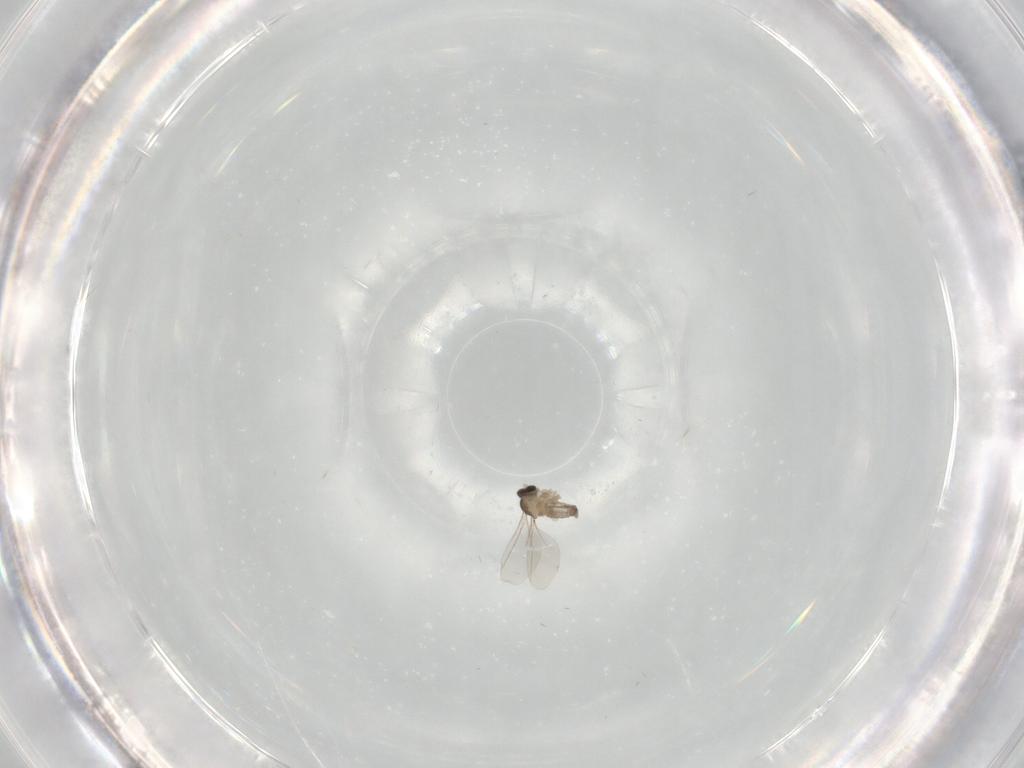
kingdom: Animalia
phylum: Arthropoda
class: Insecta
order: Diptera
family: Cecidomyiidae
